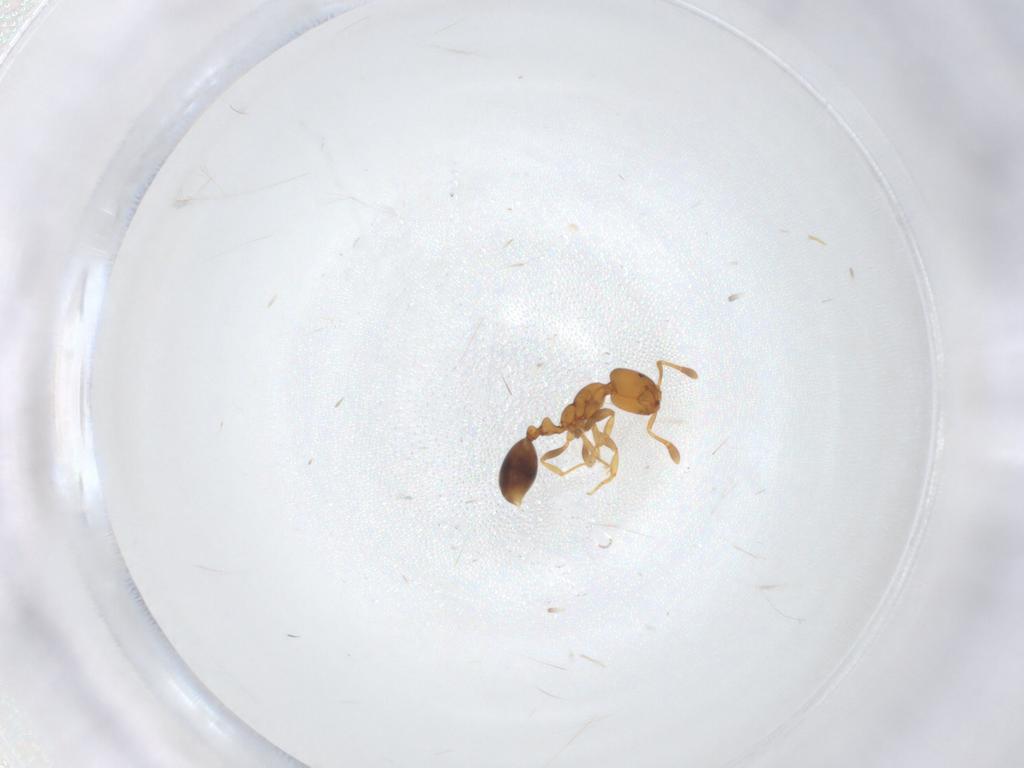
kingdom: Animalia
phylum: Arthropoda
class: Insecta
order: Hymenoptera
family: Formicidae
